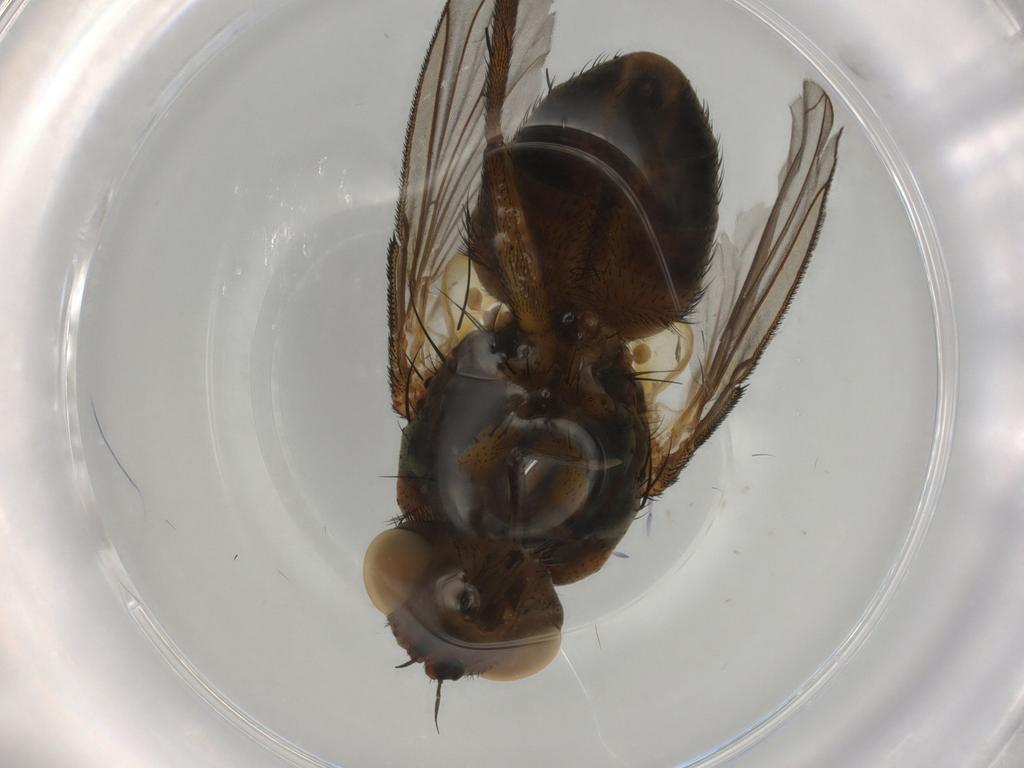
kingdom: Animalia
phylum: Arthropoda
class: Insecta
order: Diptera
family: Tachinidae
